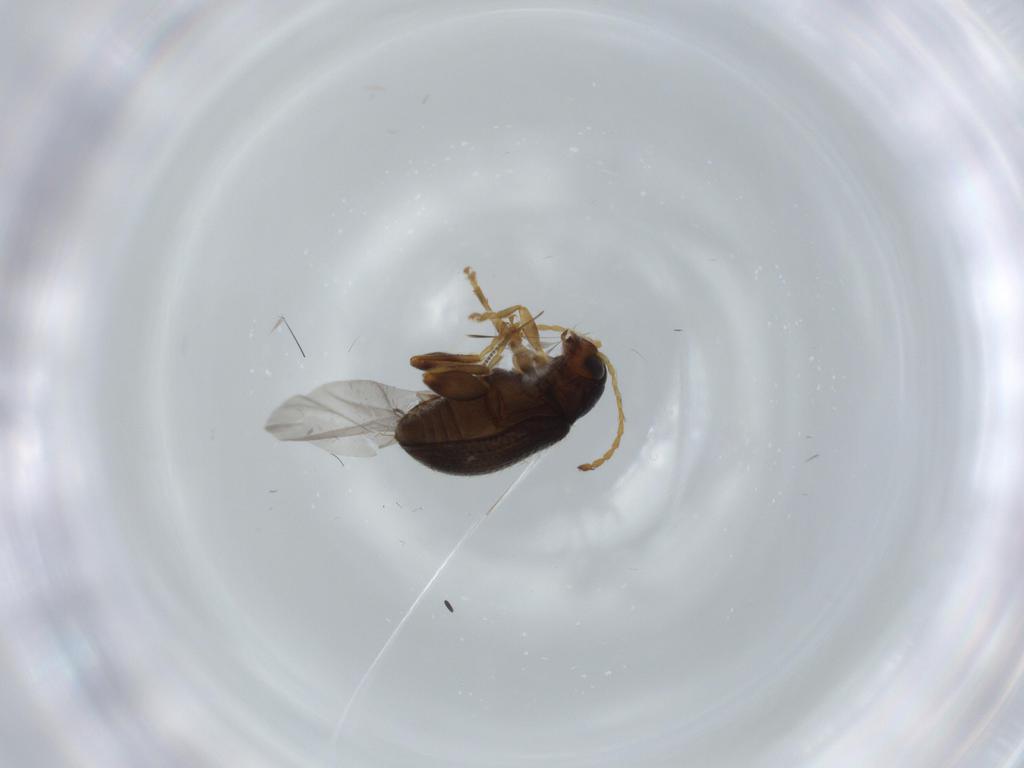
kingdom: Animalia
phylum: Arthropoda
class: Insecta
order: Coleoptera
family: Chrysomelidae
